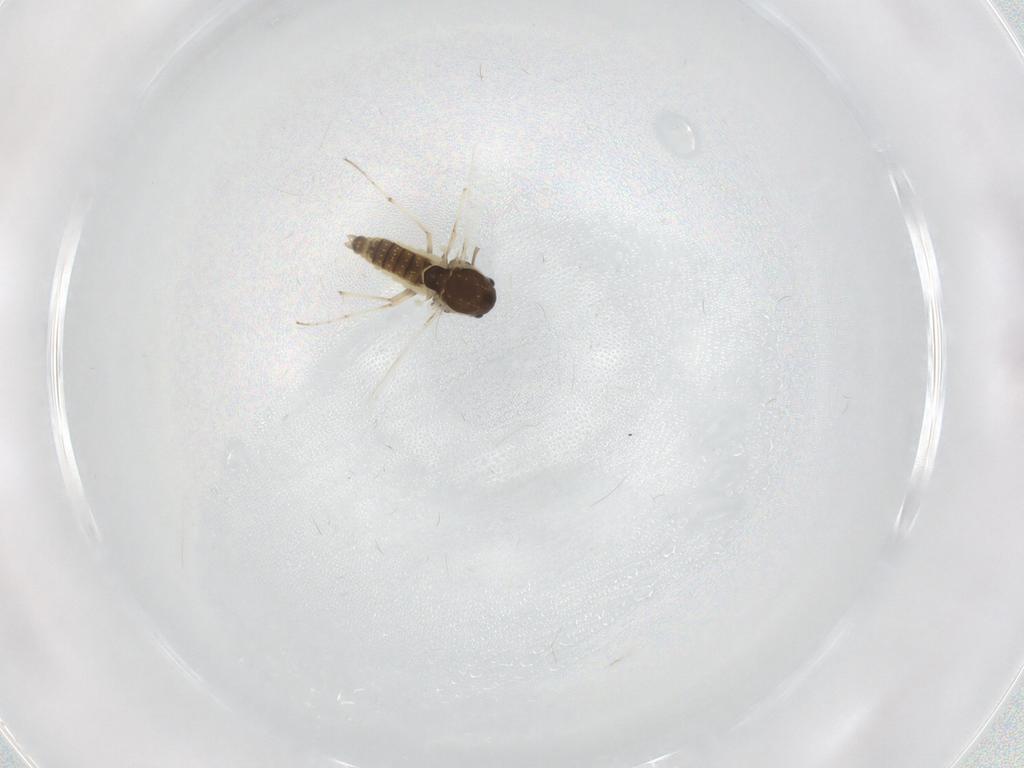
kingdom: Animalia
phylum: Arthropoda
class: Insecta
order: Diptera
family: Chironomidae
